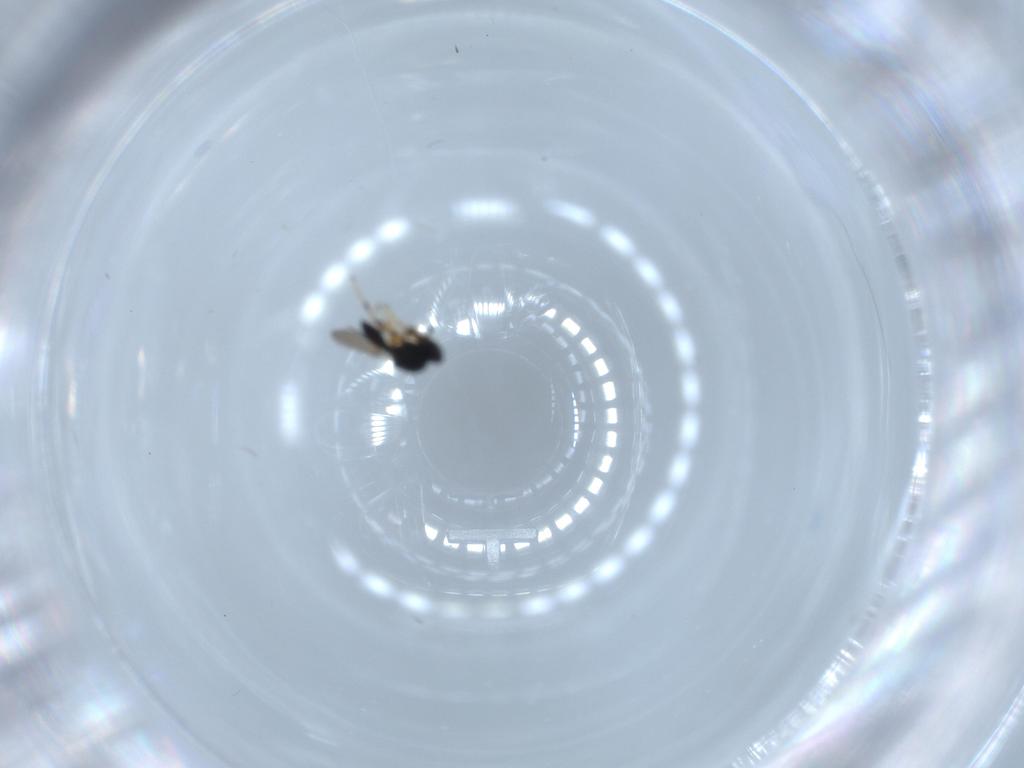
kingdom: Animalia
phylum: Arthropoda
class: Insecta
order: Hymenoptera
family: Scelionidae
